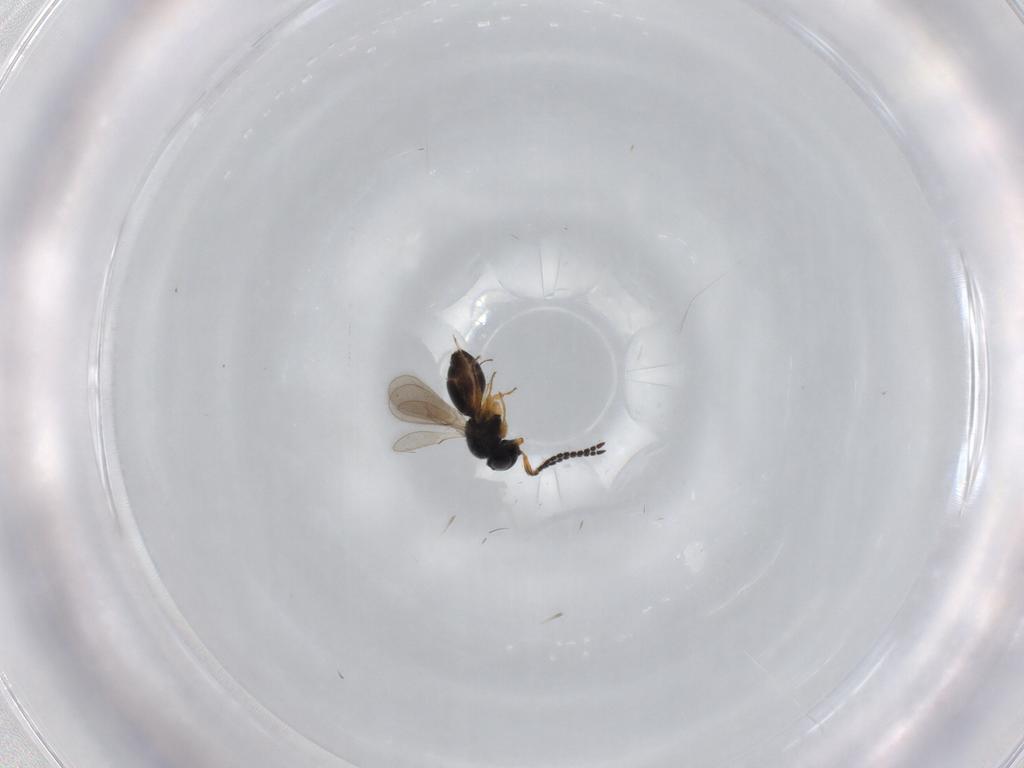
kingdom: Animalia
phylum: Arthropoda
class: Insecta
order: Hymenoptera
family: Scelionidae
